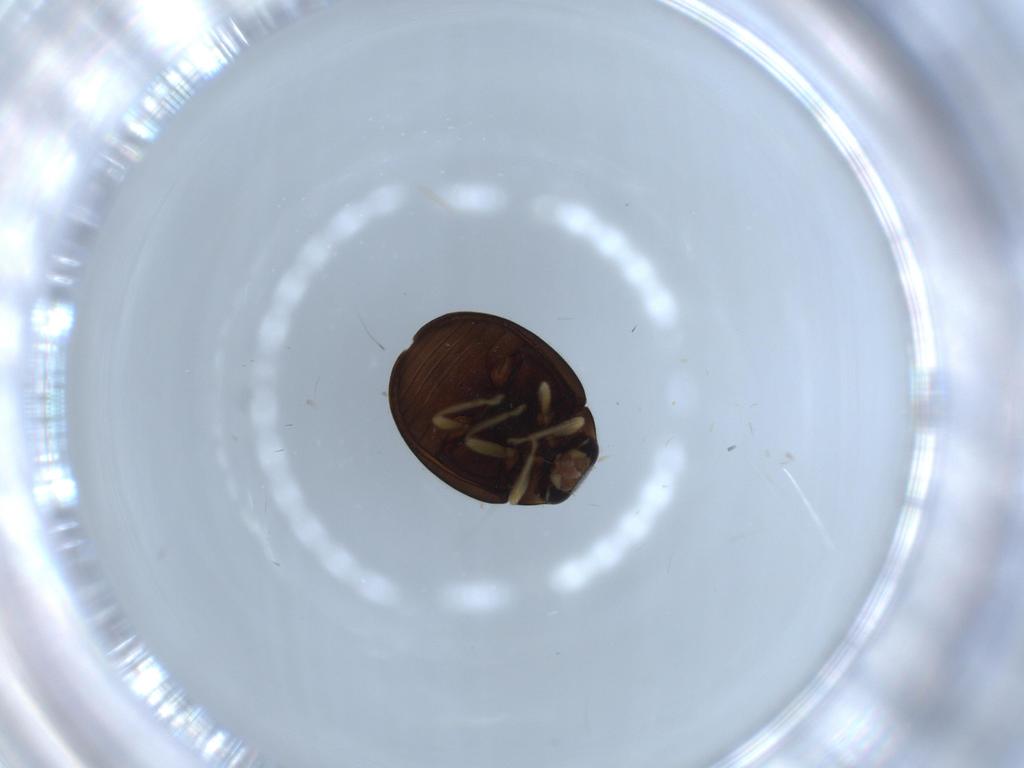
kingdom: Animalia
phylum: Arthropoda
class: Insecta
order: Coleoptera
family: Coccinellidae
